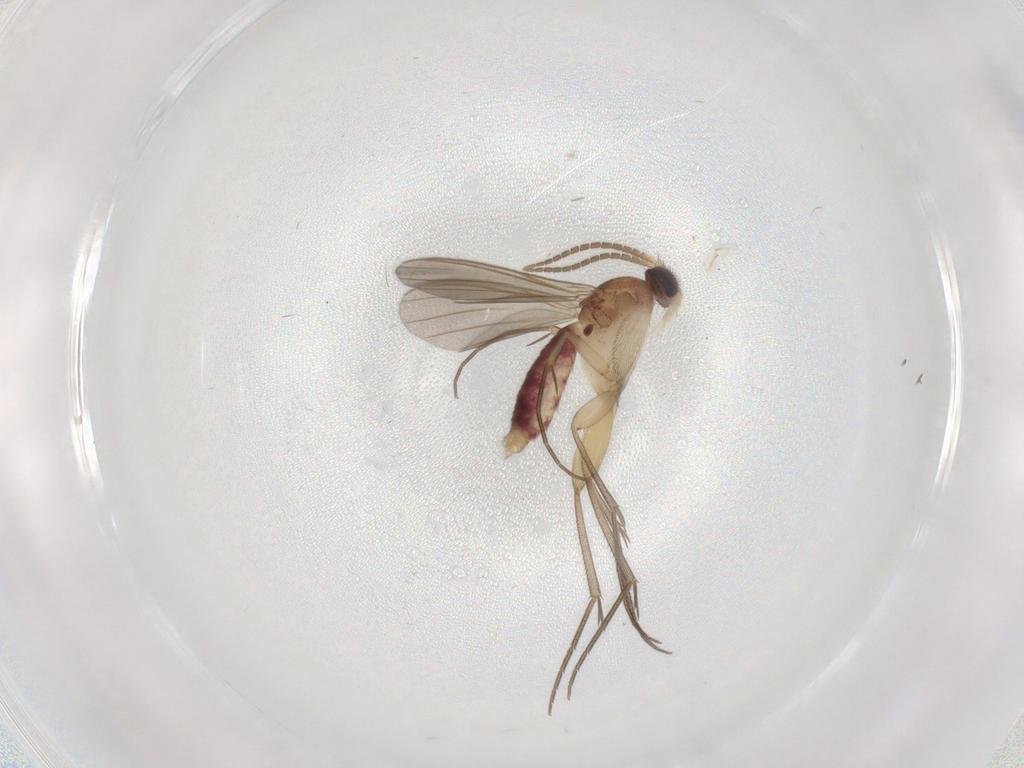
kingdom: Animalia
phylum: Arthropoda
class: Insecta
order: Diptera
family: Mycetophilidae
